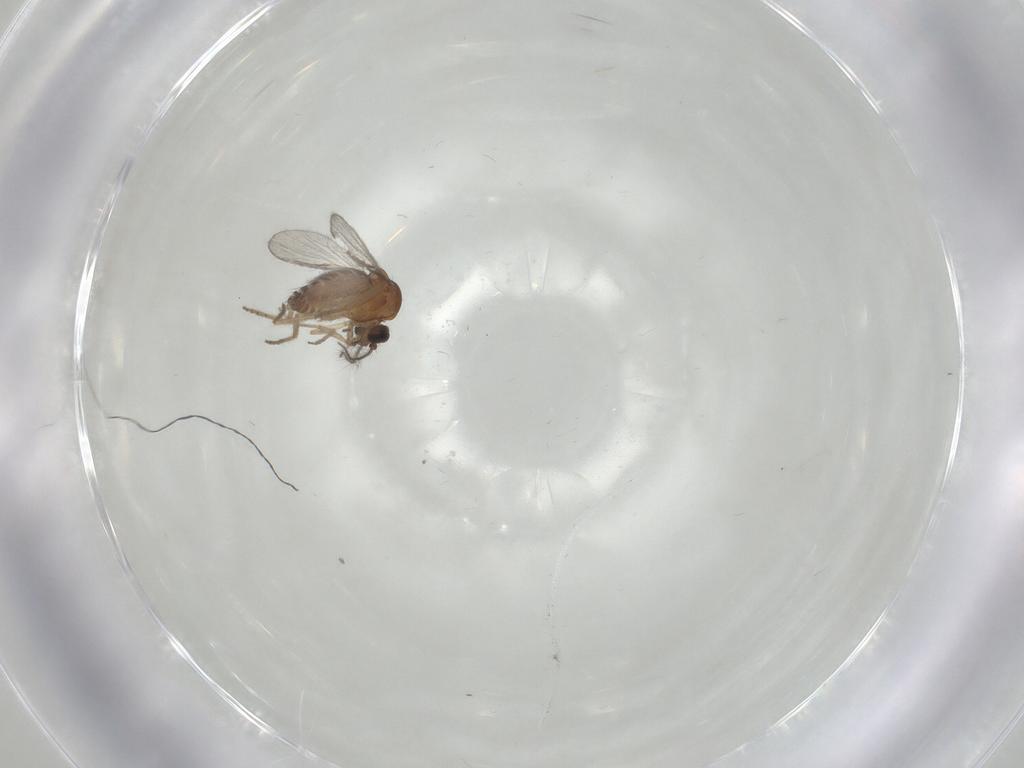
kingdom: Animalia
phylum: Arthropoda
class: Insecta
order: Diptera
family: Ceratopogonidae
